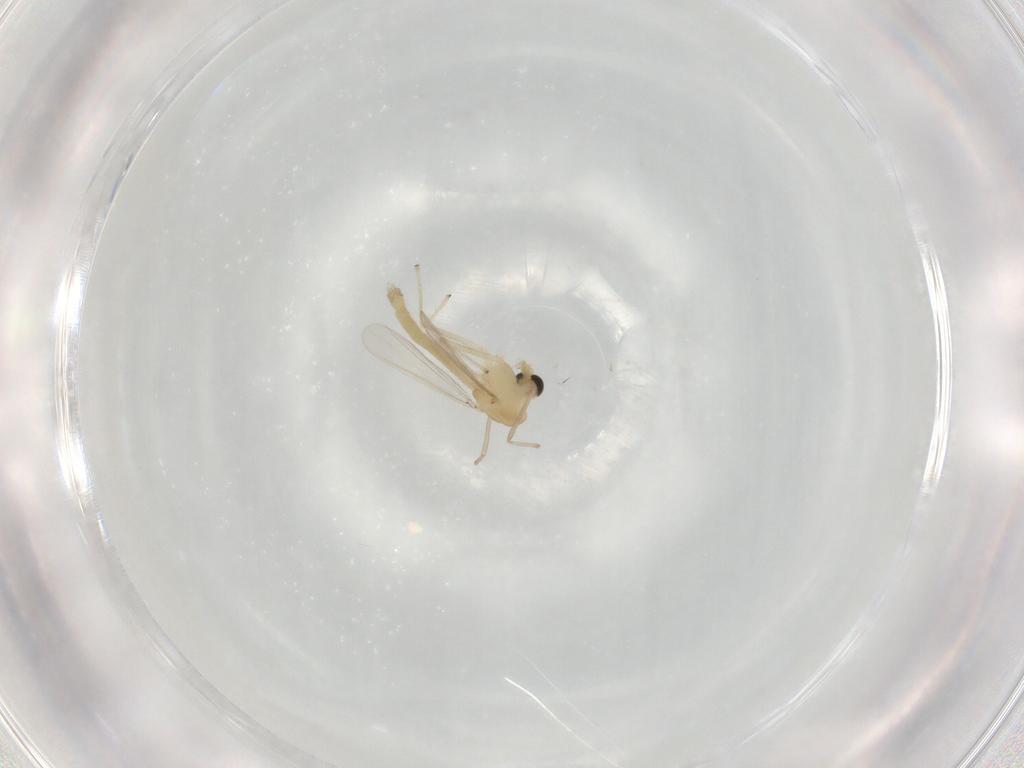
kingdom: Animalia
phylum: Arthropoda
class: Insecta
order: Diptera
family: Chironomidae
